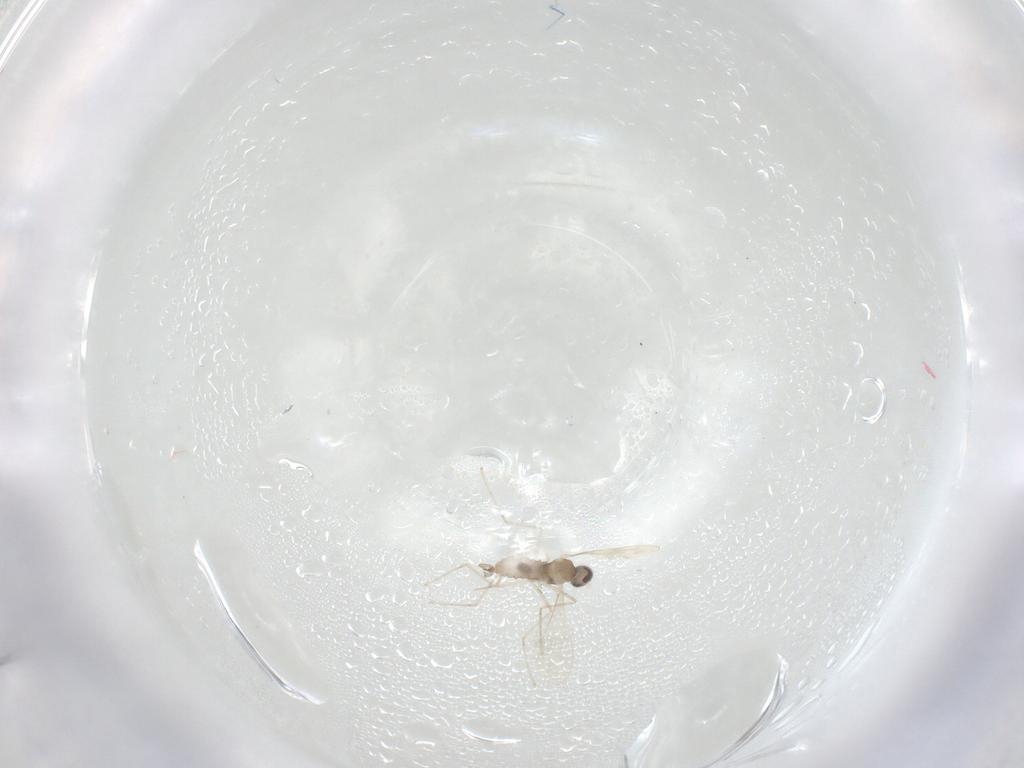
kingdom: Animalia
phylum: Arthropoda
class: Insecta
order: Diptera
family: Cecidomyiidae
